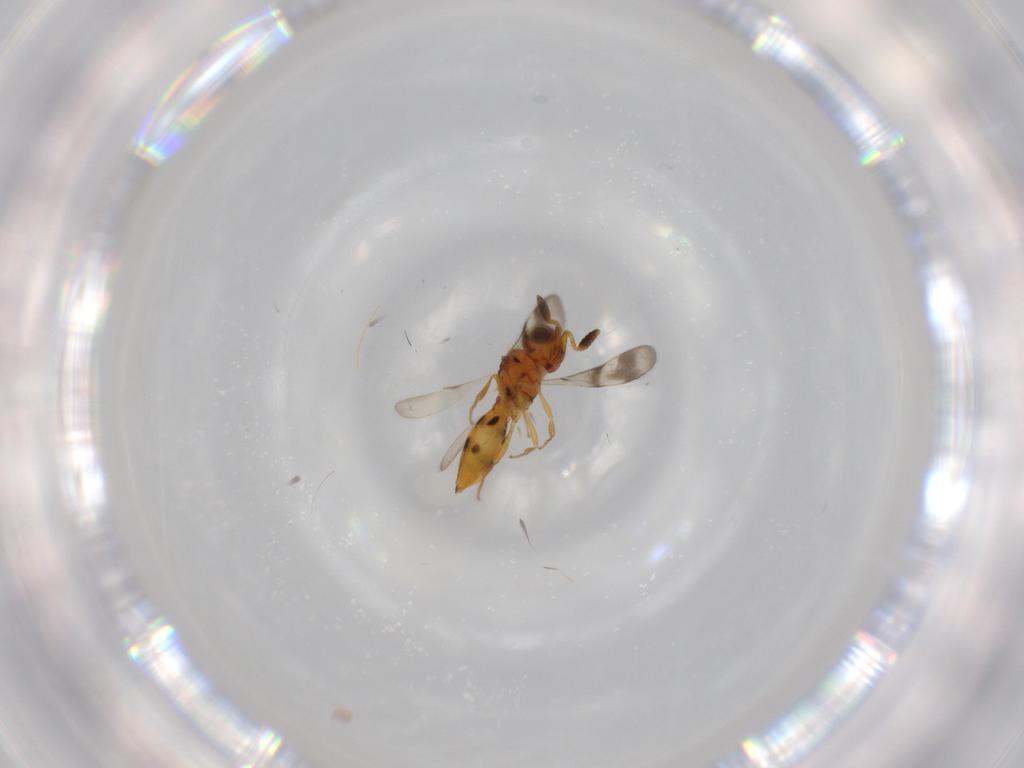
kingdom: Animalia
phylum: Arthropoda
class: Insecta
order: Hymenoptera
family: Scelionidae
